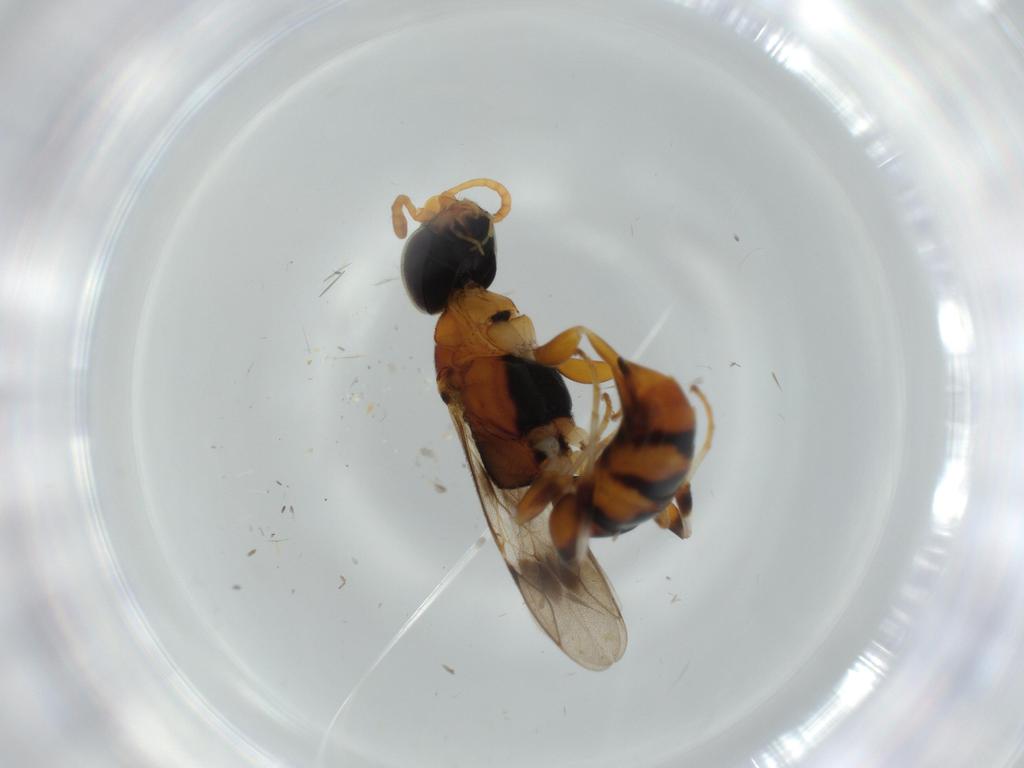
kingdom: Animalia
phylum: Arthropoda
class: Insecta
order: Hymenoptera
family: Crabronidae
